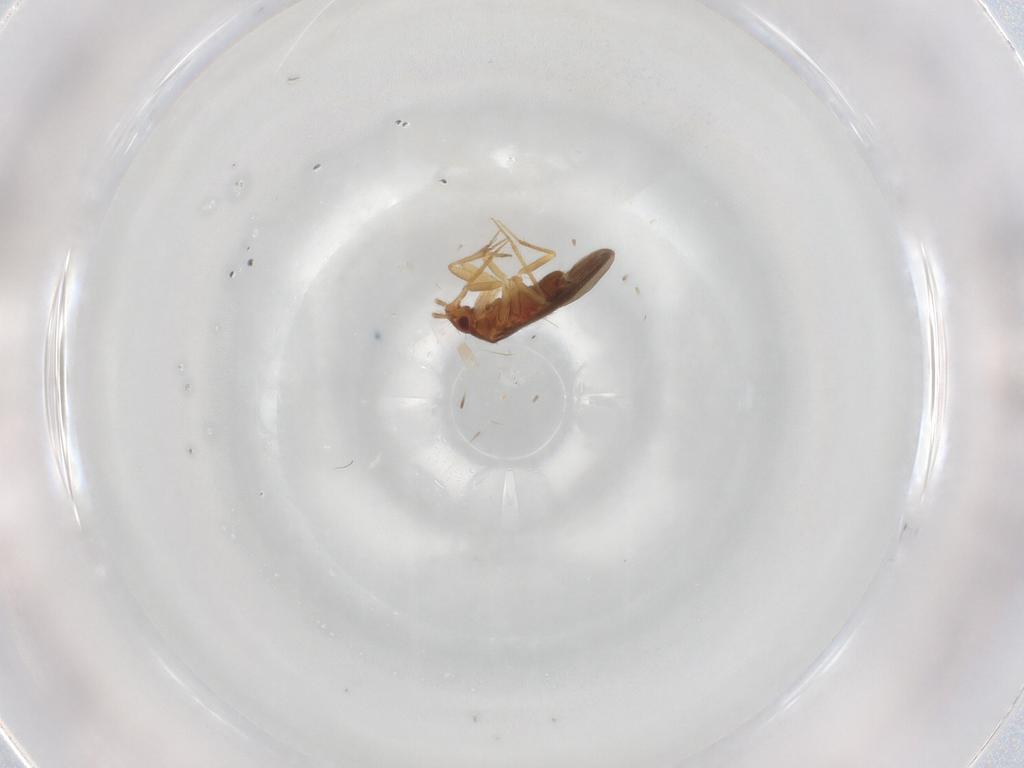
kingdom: Animalia
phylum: Arthropoda
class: Insecta
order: Hemiptera
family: Ceratocombidae
